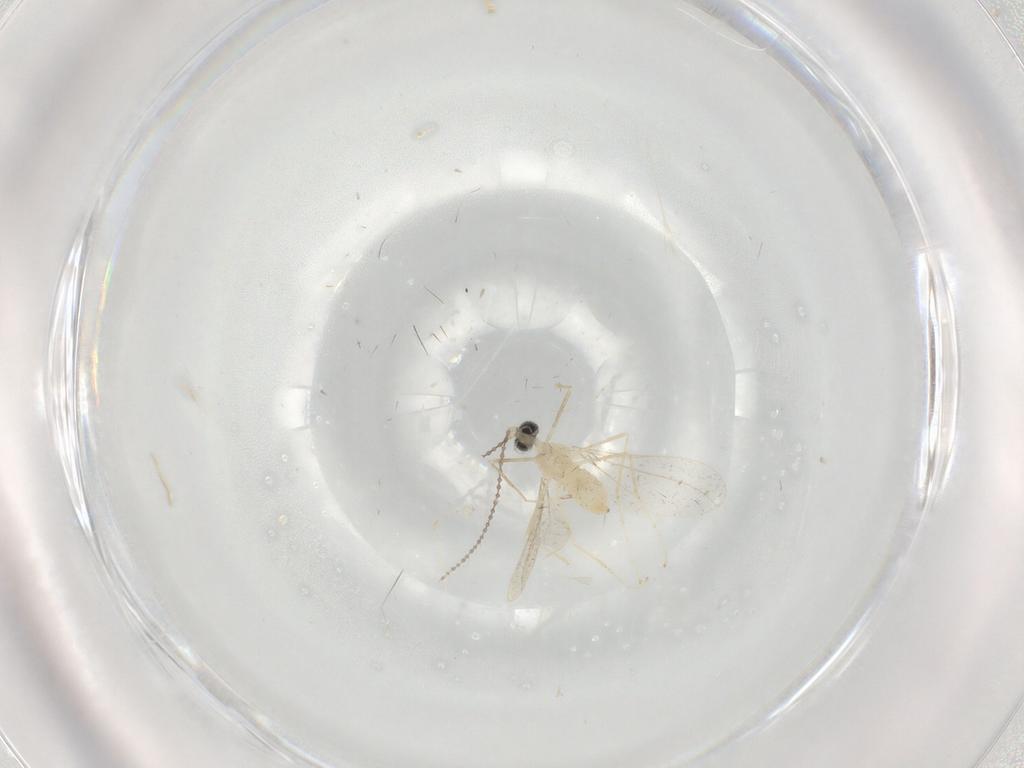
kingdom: Animalia
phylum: Arthropoda
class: Insecta
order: Diptera
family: Cecidomyiidae
